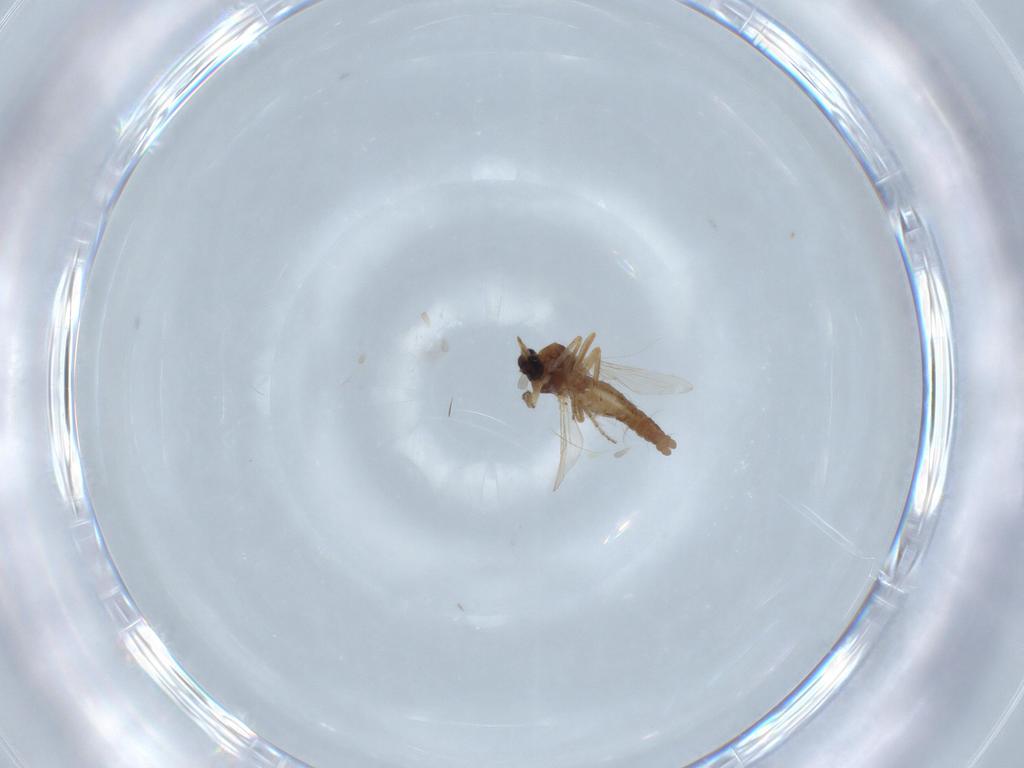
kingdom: Animalia
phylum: Arthropoda
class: Insecta
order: Diptera
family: Ceratopogonidae
